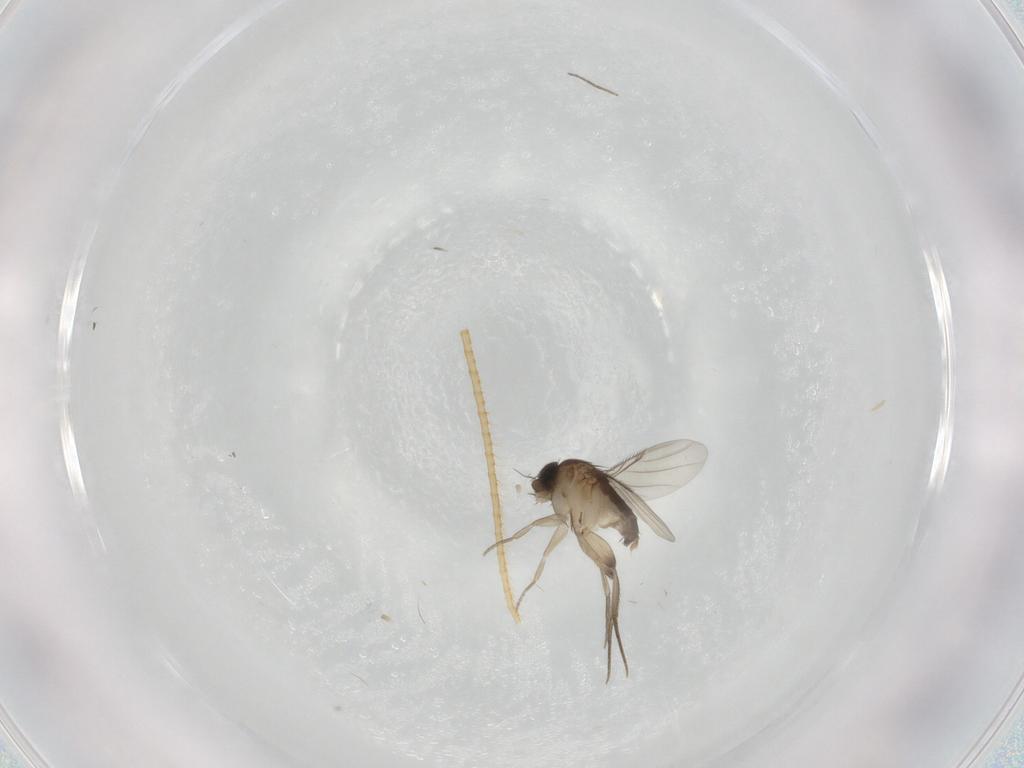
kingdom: Animalia
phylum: Arthropoda
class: Insecta
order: Diptera
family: Phoridae
